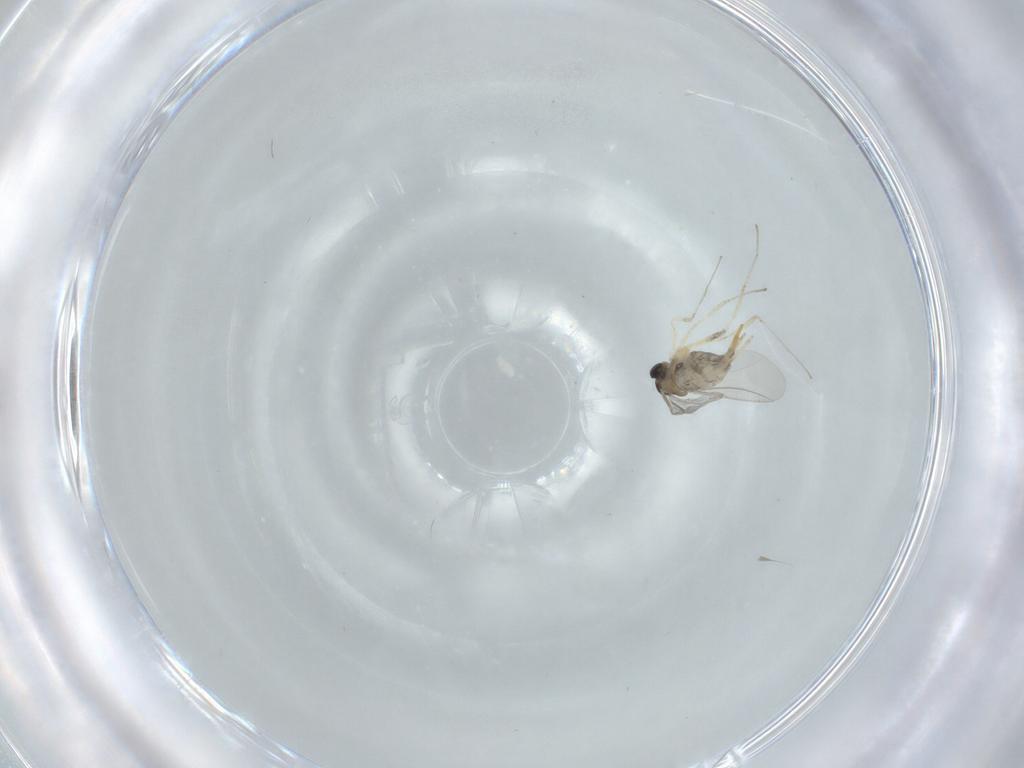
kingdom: Animalia
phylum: Arthropoda
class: Insecta
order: Diptera
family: Cecidomyiidae
